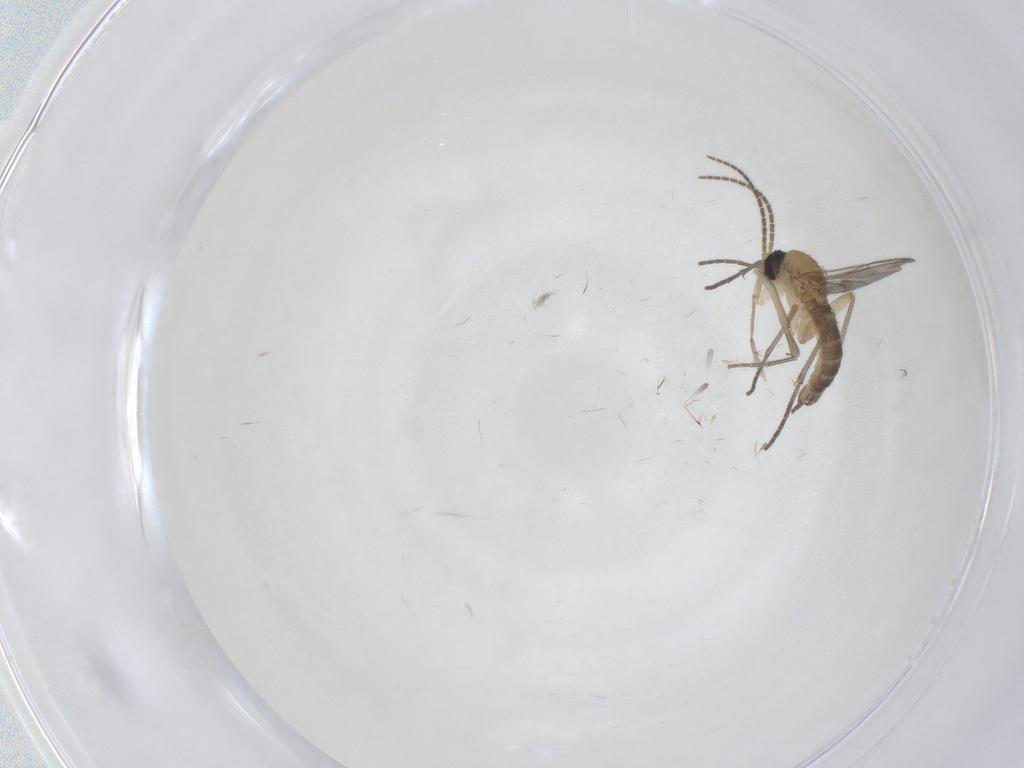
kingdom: Animalia
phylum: Arthropoda
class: Insecta
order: Diptera
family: Phoridae
